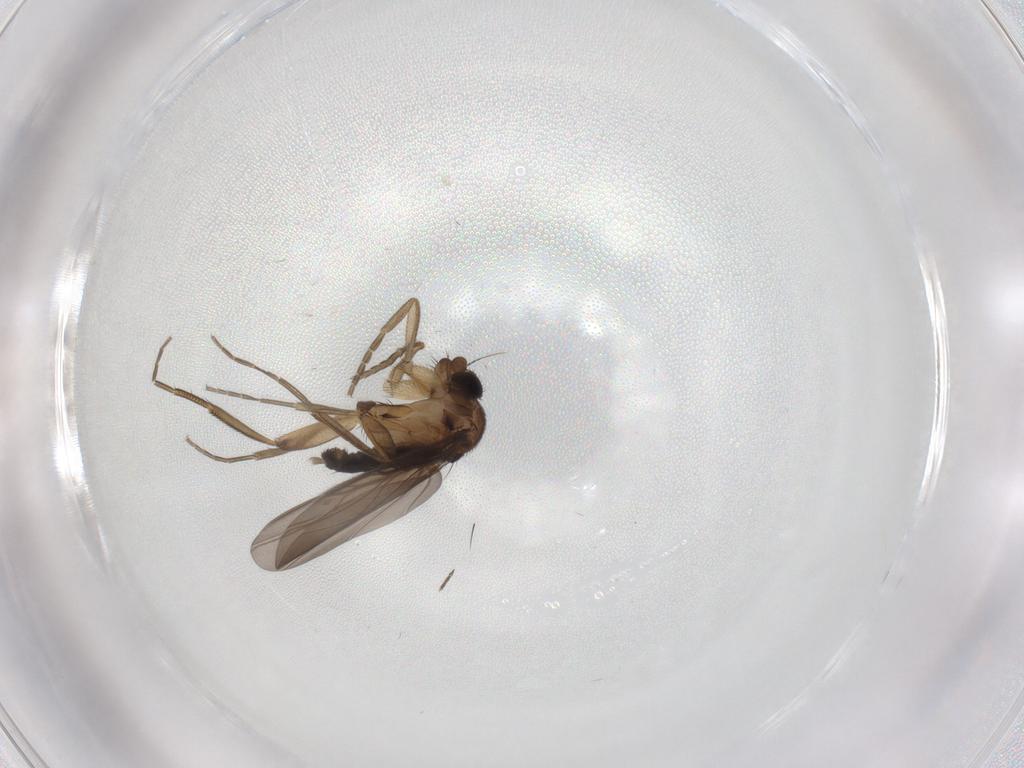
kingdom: Animalia
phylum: Arthropoda
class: Insecta
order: Diptera
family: Phoridae
